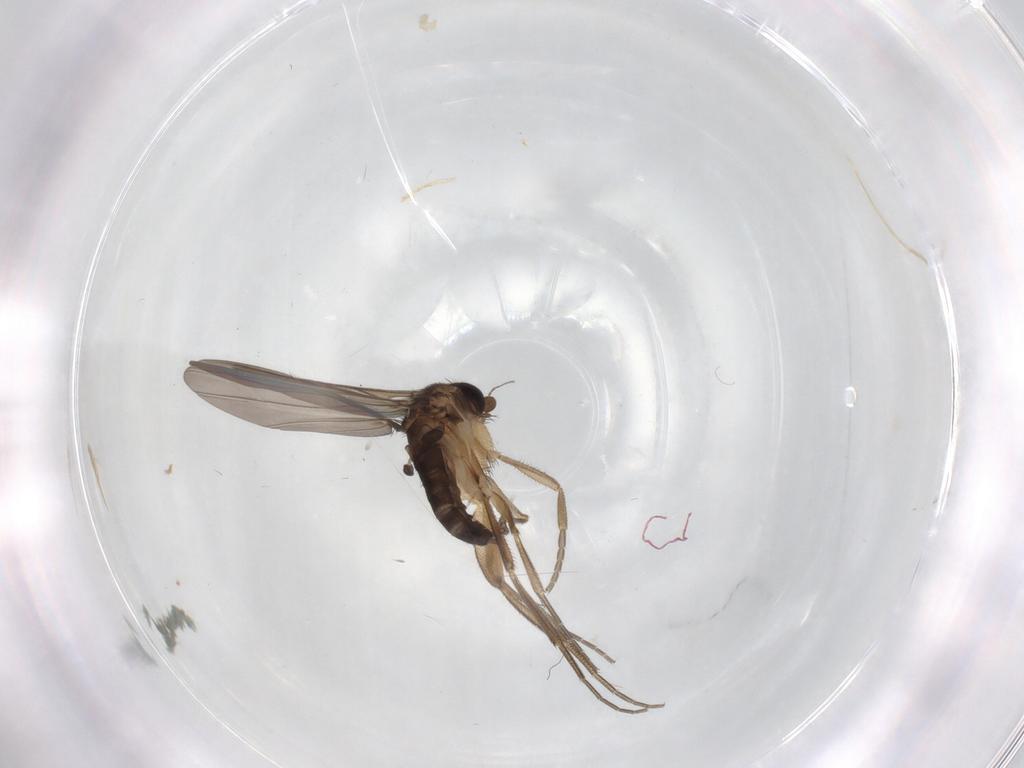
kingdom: Animalia
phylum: Arthropoda
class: Insecta
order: Diptera
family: Phoridae
